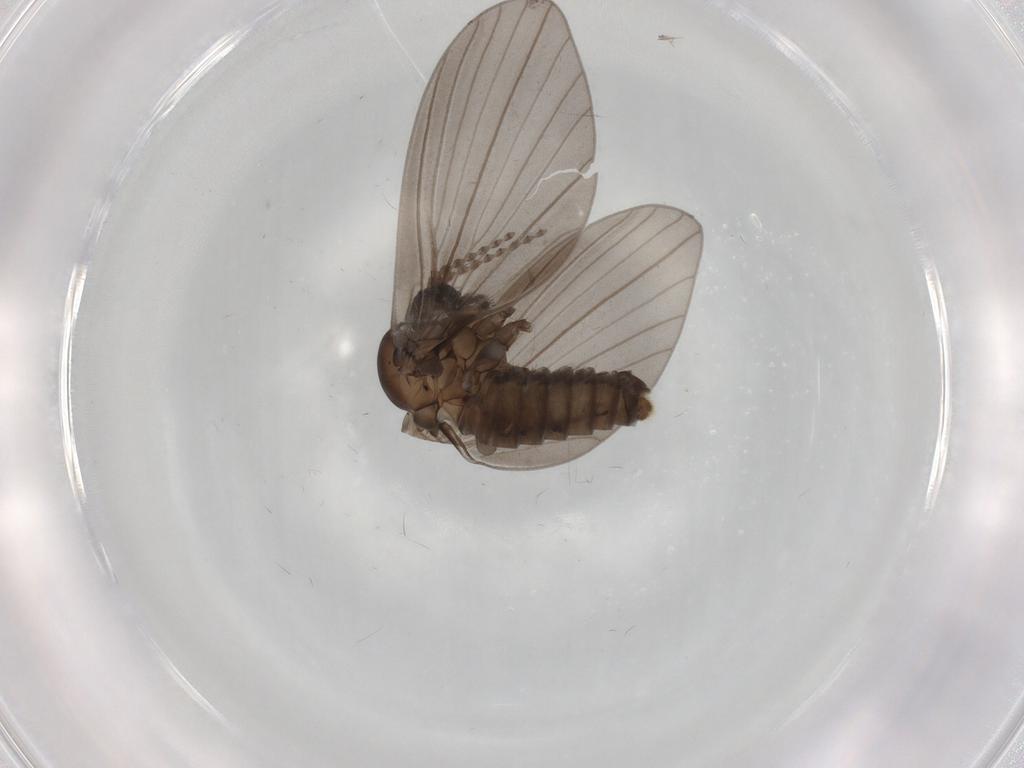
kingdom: Animalia
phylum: Arthropoda
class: Insecta
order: Diptera
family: Psychodidae
